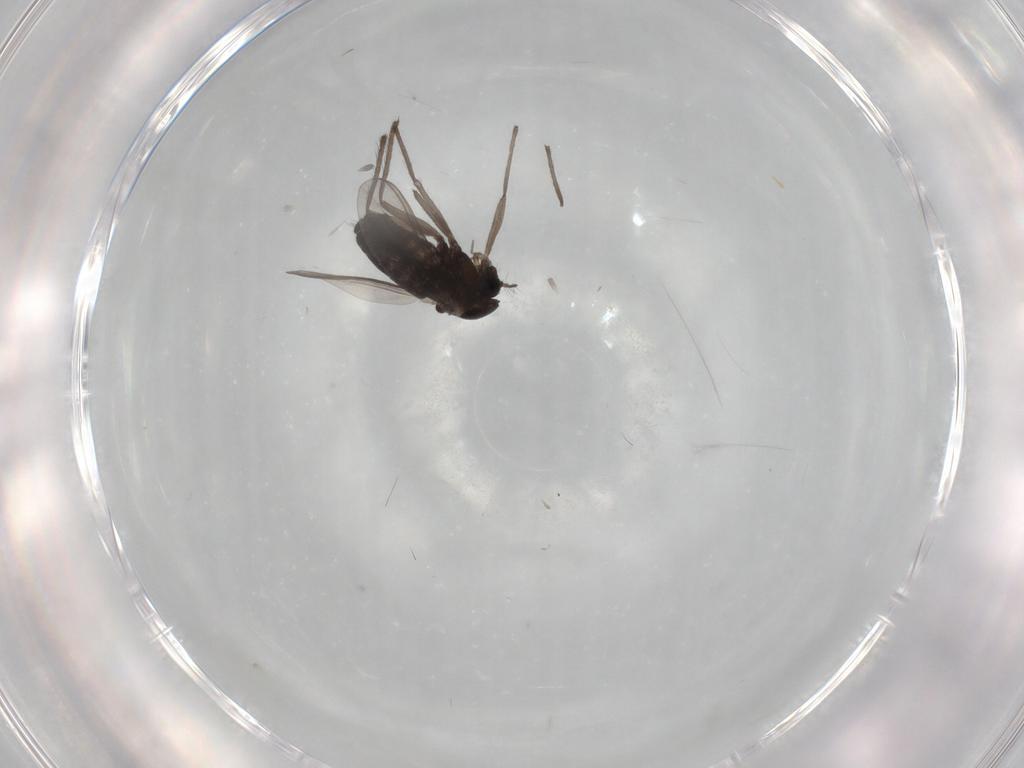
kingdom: Animalia
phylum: Arthropoda
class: Insecta
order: Diptera
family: Chironomidae
